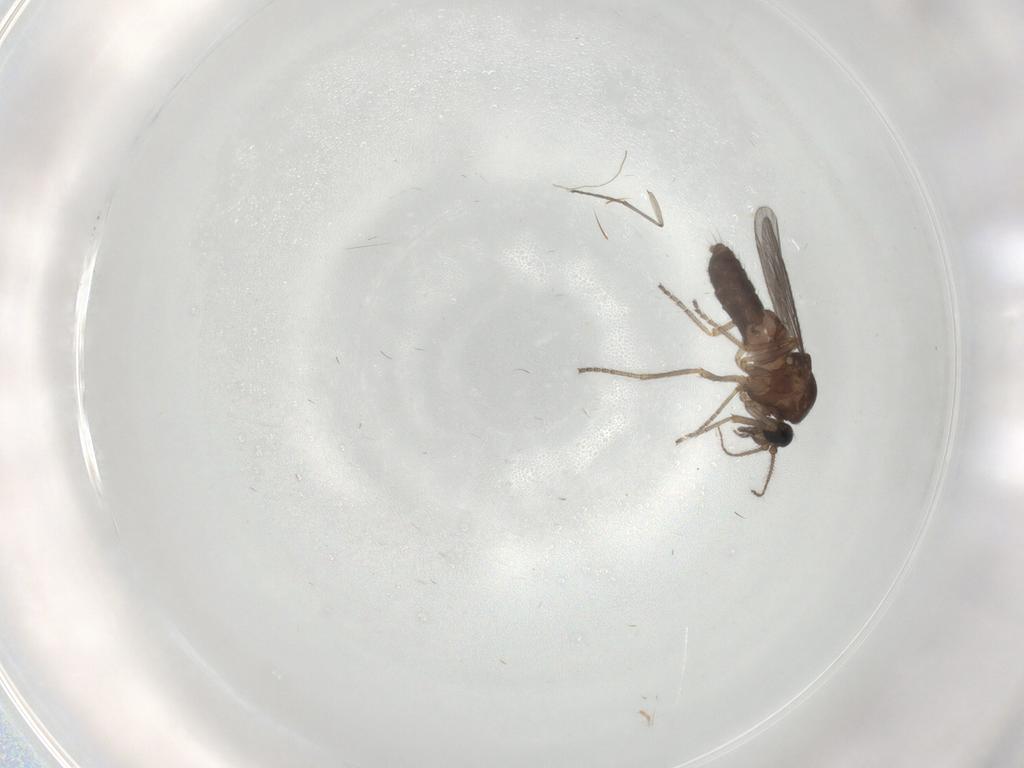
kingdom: Animalia
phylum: Arthropoda
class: Insecta
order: Diptera
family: Ceratopogonidae
